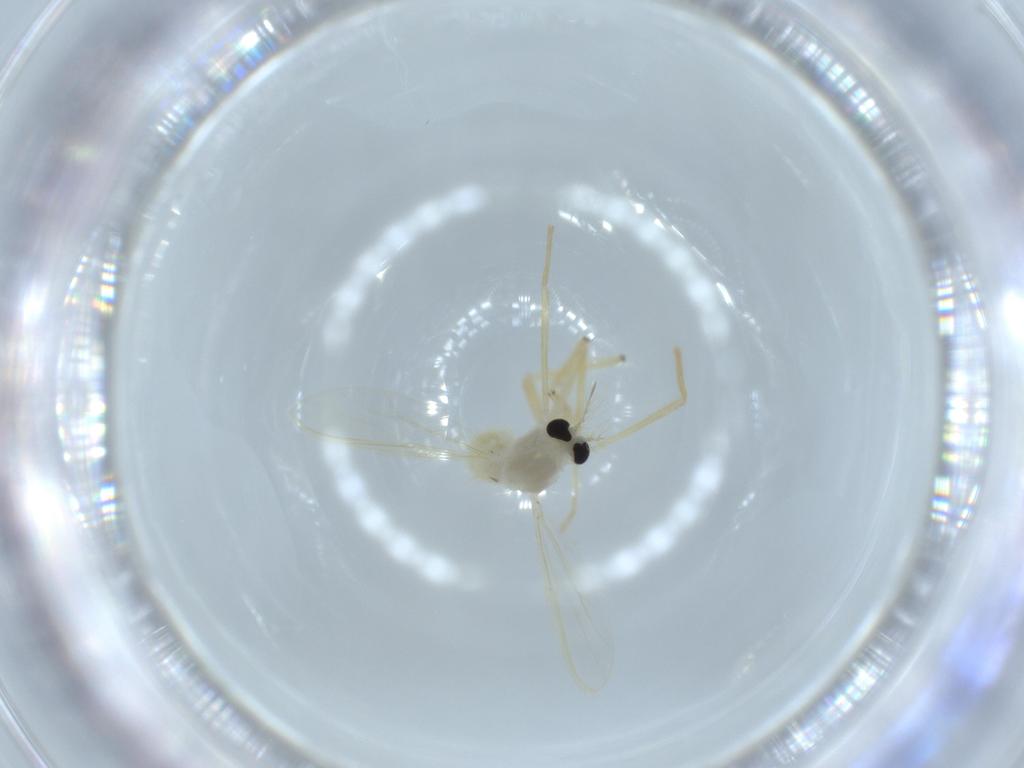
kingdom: Animalia
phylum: Arthropoda
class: Insecta
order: Diptera
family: Chironomidae
